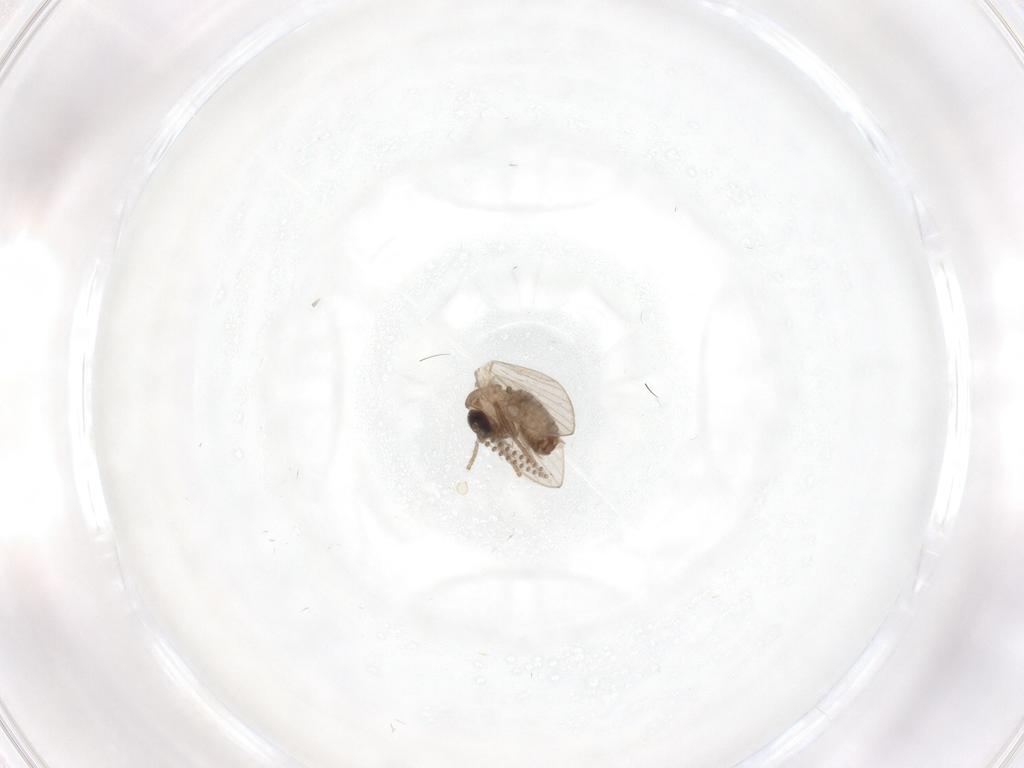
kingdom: Animalia
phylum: Arthropoda
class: Insecta
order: Diptera
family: Psychodidae
